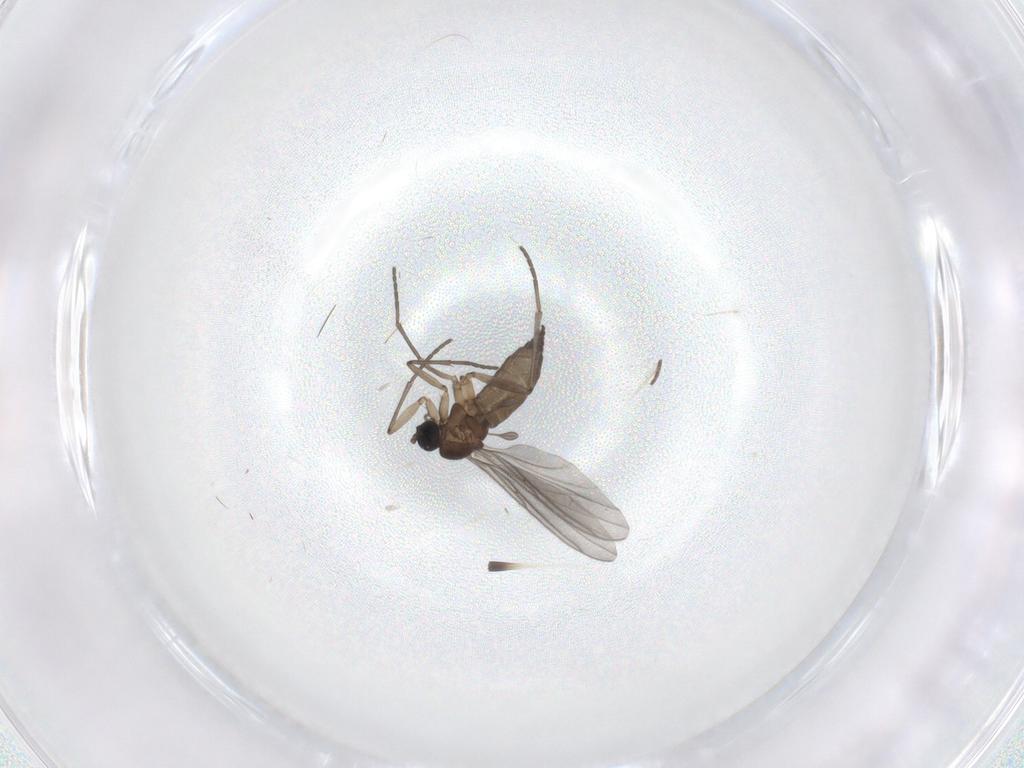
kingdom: Animalia
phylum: Arthropoda
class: Insecta
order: Diptera
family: Sciaridae
